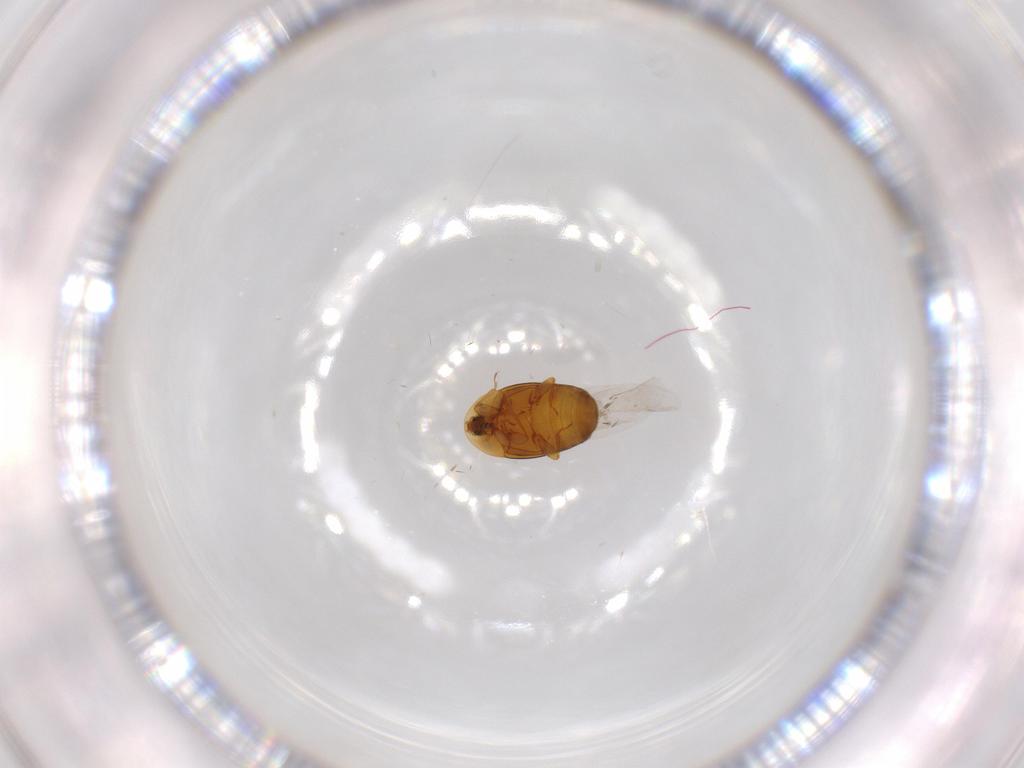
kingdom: Animalia
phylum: Arthropoda
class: Insecta
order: Coleoptera
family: Corylophidae
